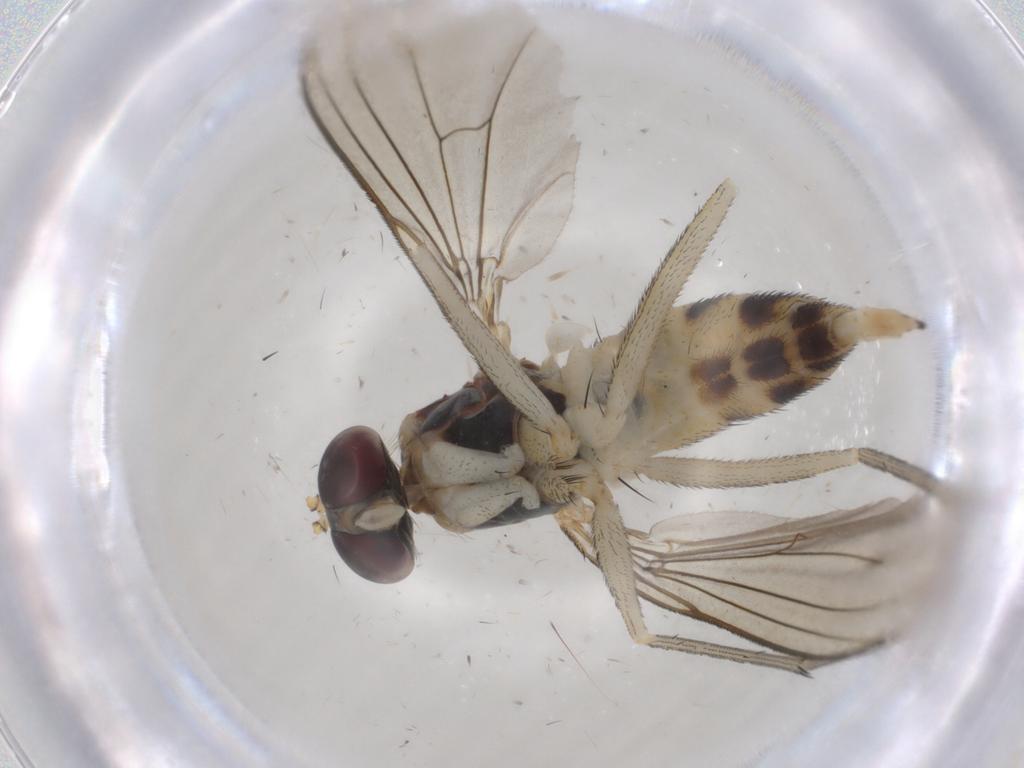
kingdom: Animalia
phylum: Arthropoda
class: Insecta
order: Diptera
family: Dolichopodidae
